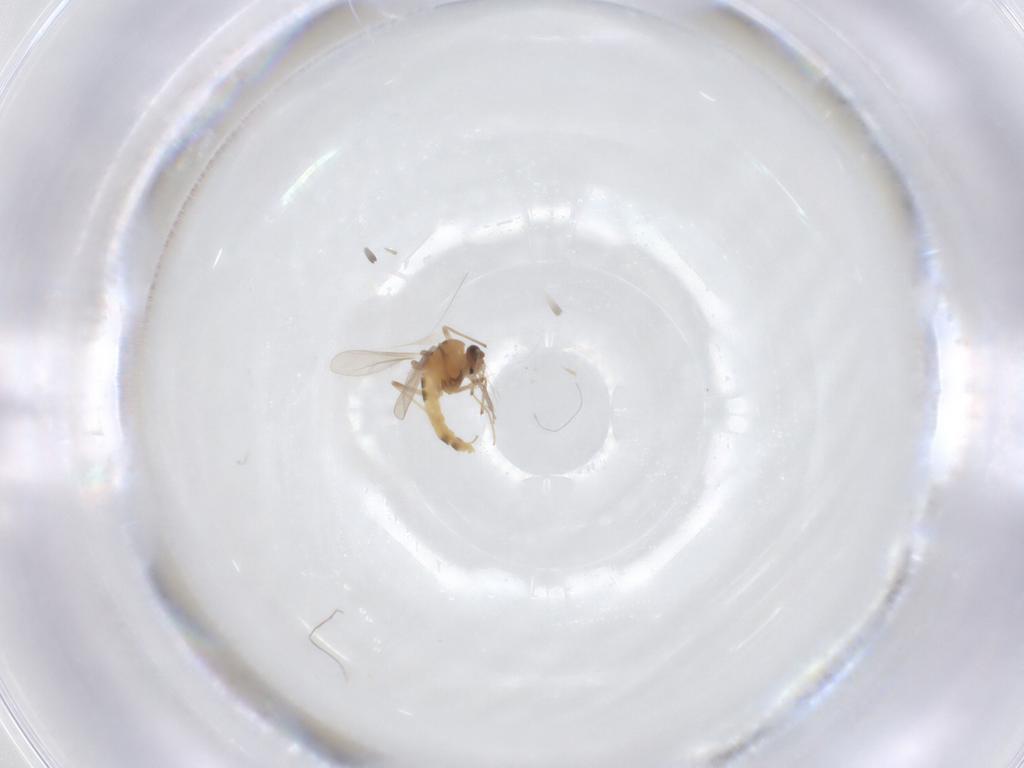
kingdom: Animalia
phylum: Arthropoda
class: Insecta
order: Diptera
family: Chironomidae
